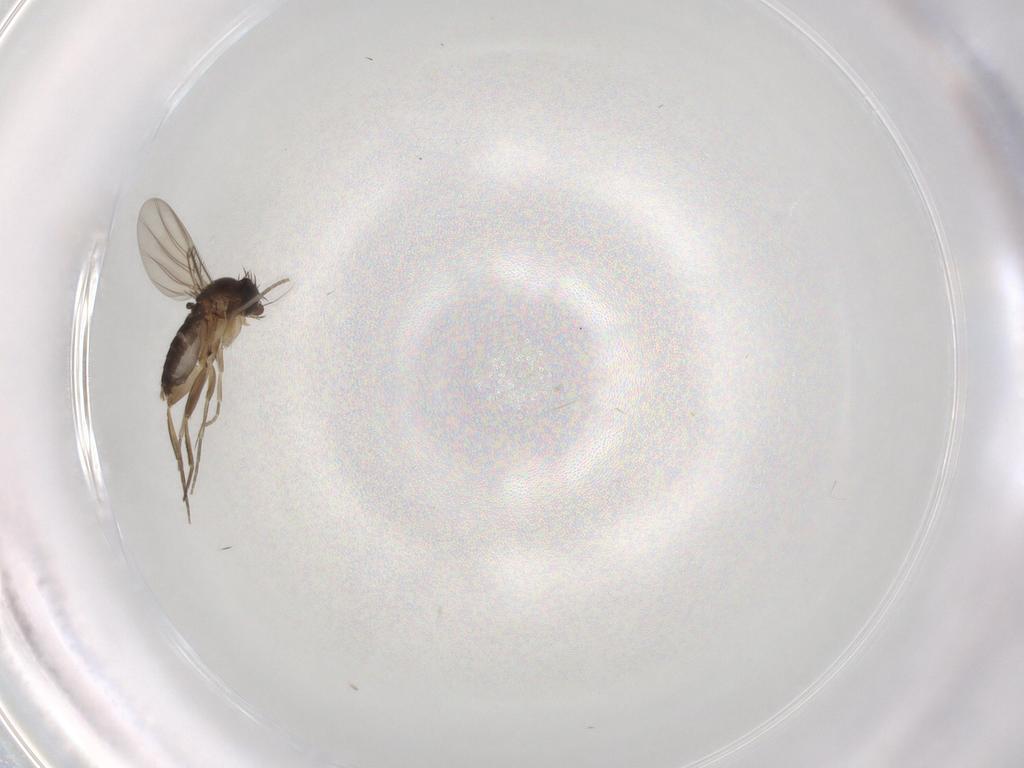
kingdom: Animalia
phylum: Arthropoda
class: Insecta
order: Diptera
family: Phoridae
